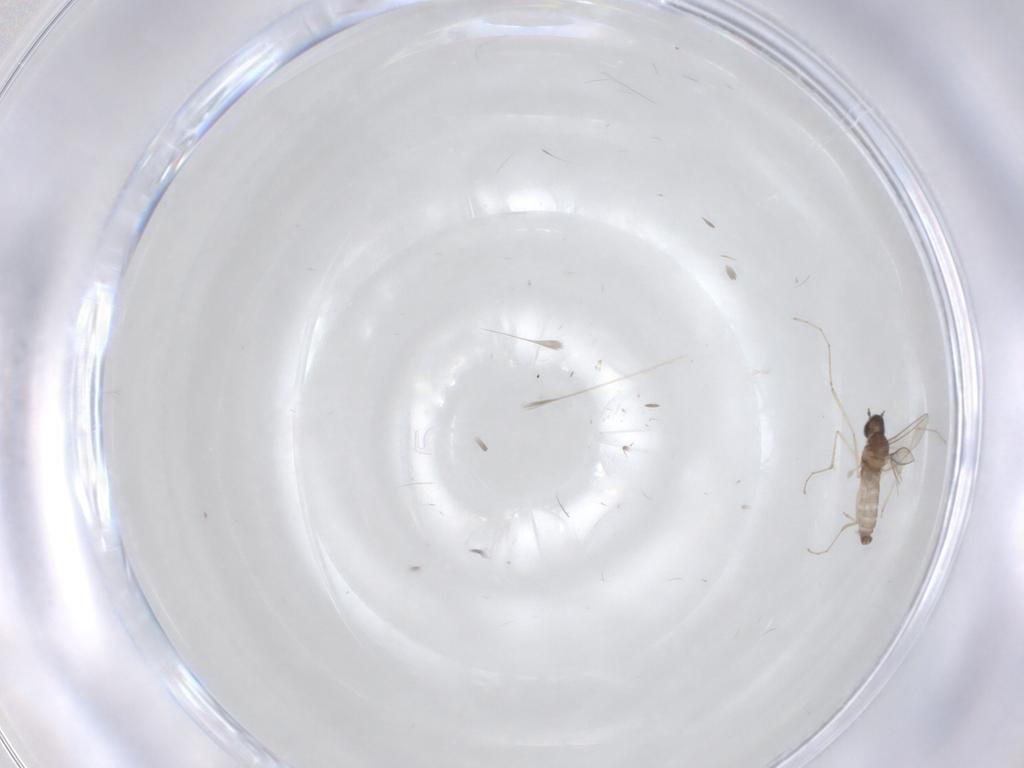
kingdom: Animalia
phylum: Arthropoda
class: Insecta
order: Diptera
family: Cecidomyiidae
